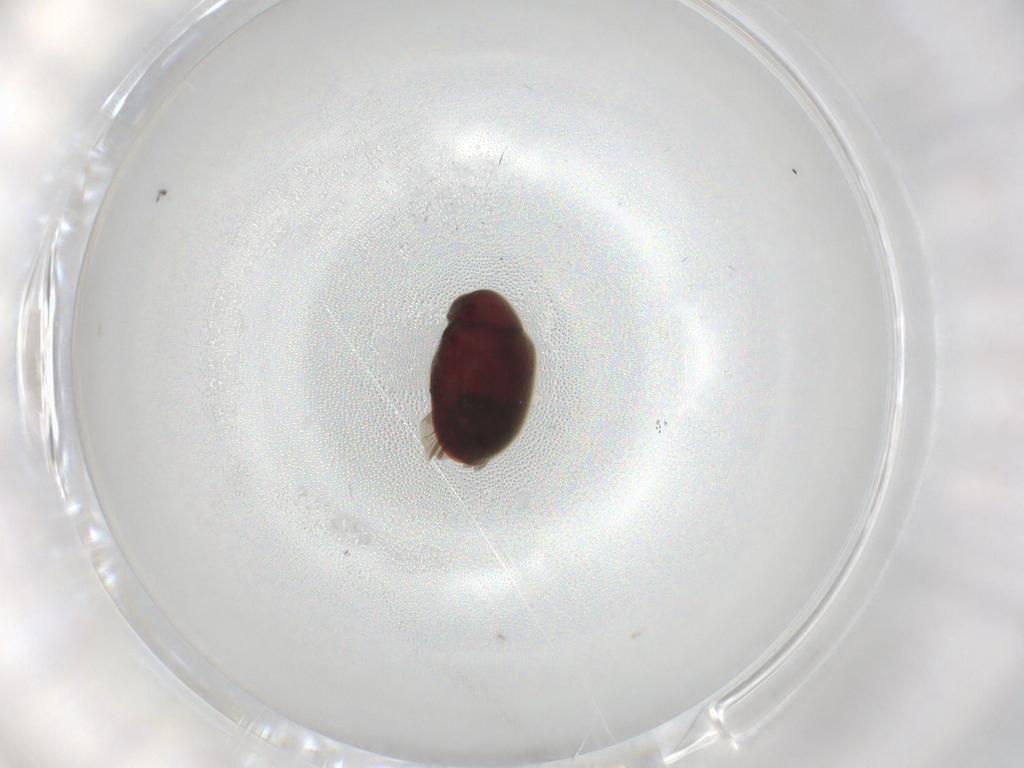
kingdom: Animalia
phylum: Arthropoda
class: Insecta
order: Coleoptera
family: Ptinidae
